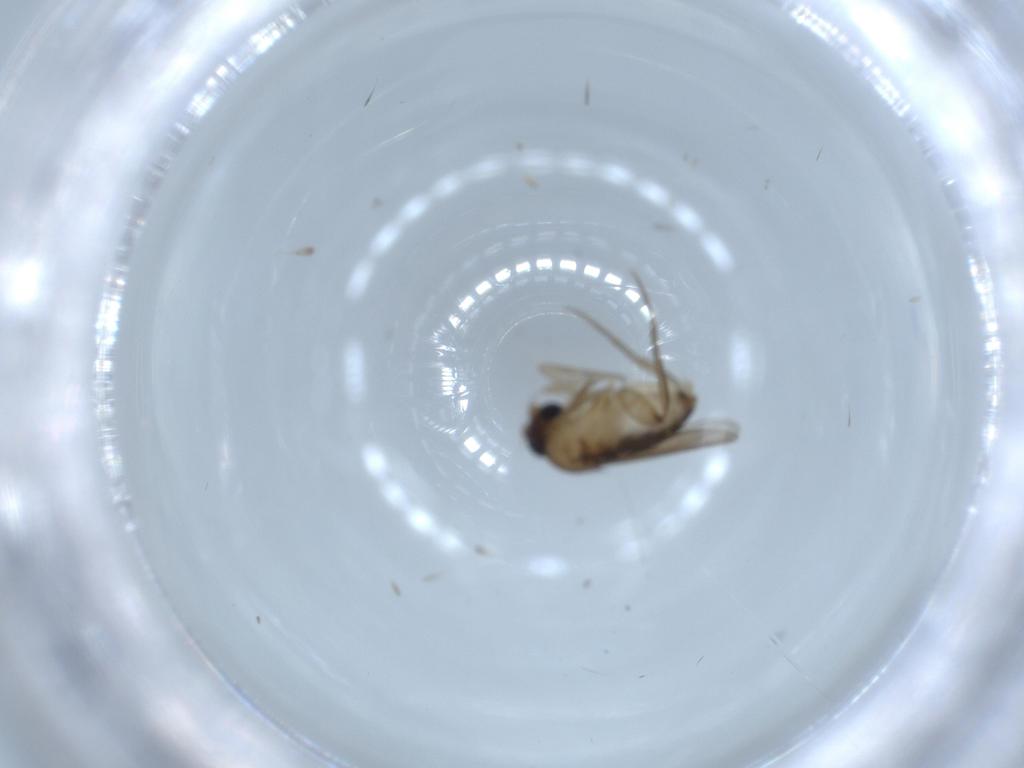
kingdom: Animalia
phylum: Arthropoda
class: Insecta
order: Diptera
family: Phoridae
